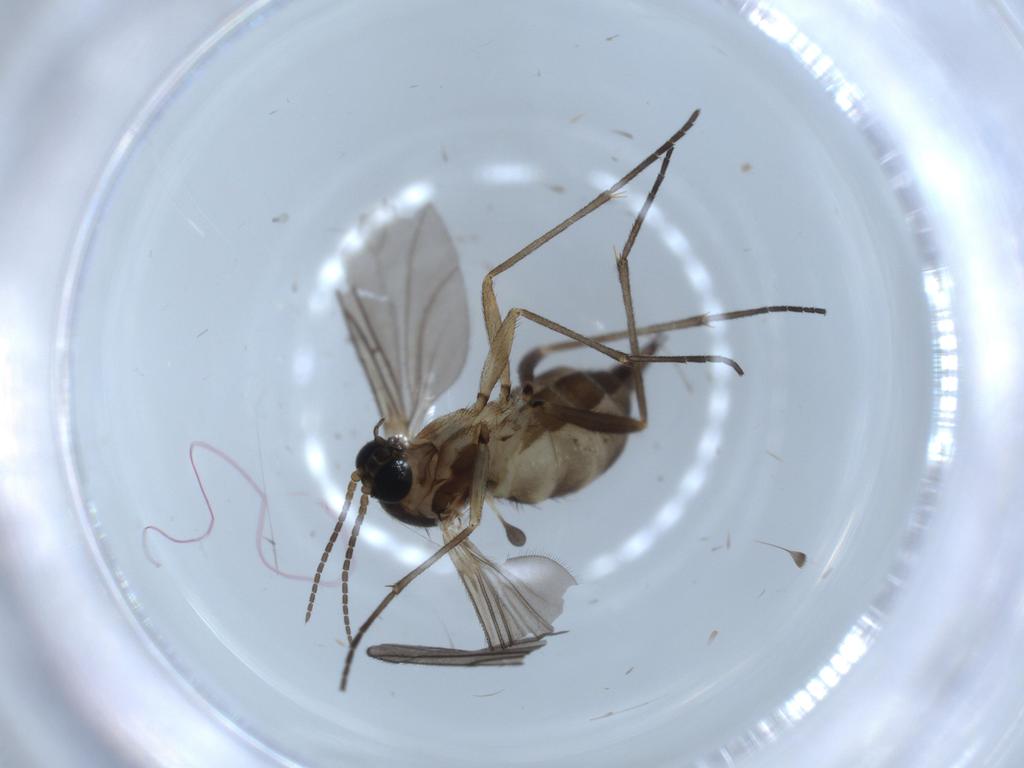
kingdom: Animalia
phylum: Arthropoda
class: Insecta
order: Diptera
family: Sciaridae
